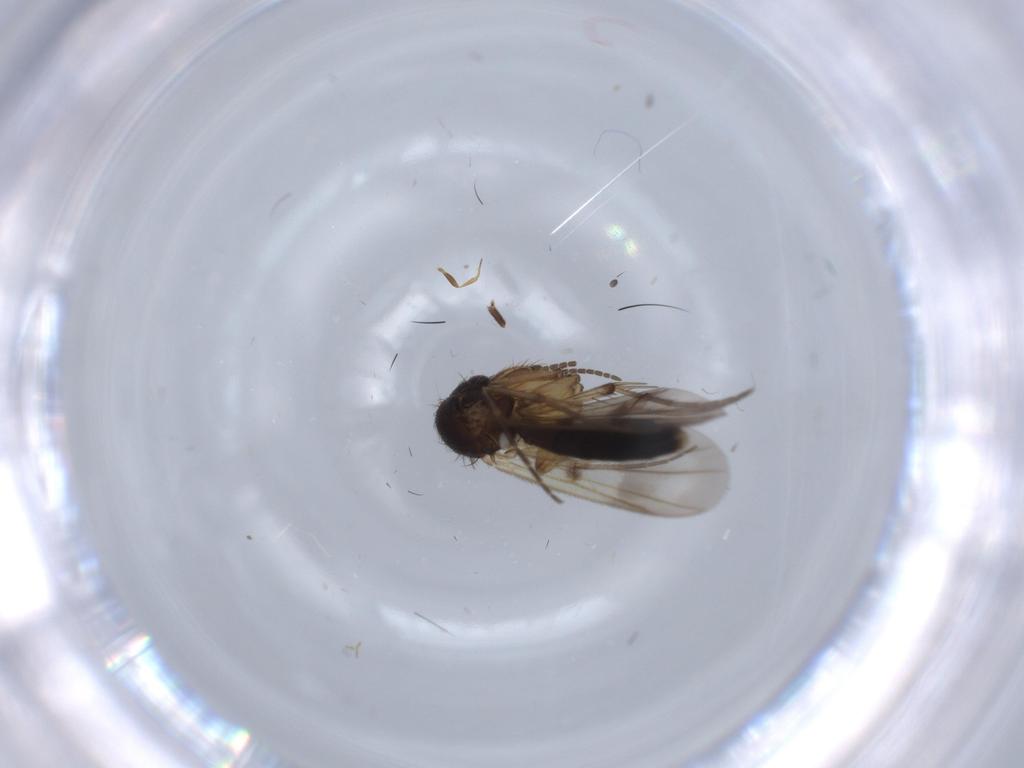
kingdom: Animalia
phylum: Arthropoda
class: Insecta
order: Diptera
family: Sciaridae
